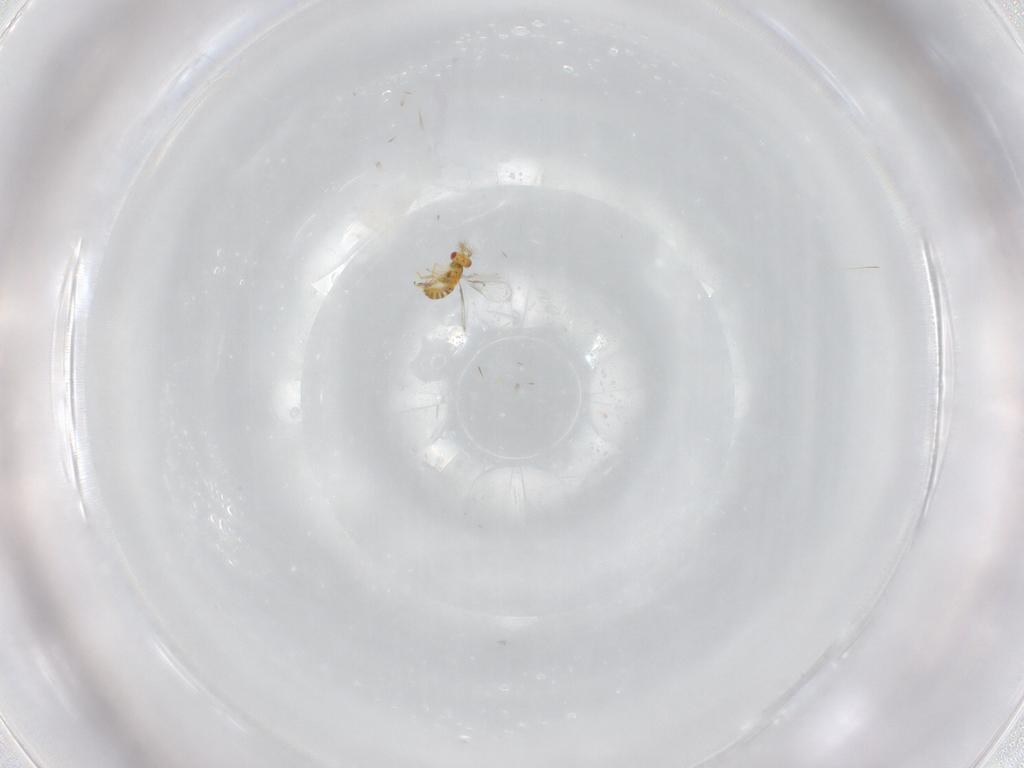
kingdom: Animalia
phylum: Arthropoda
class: Insecta
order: Hymenoptera
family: Trichogrammatidae
